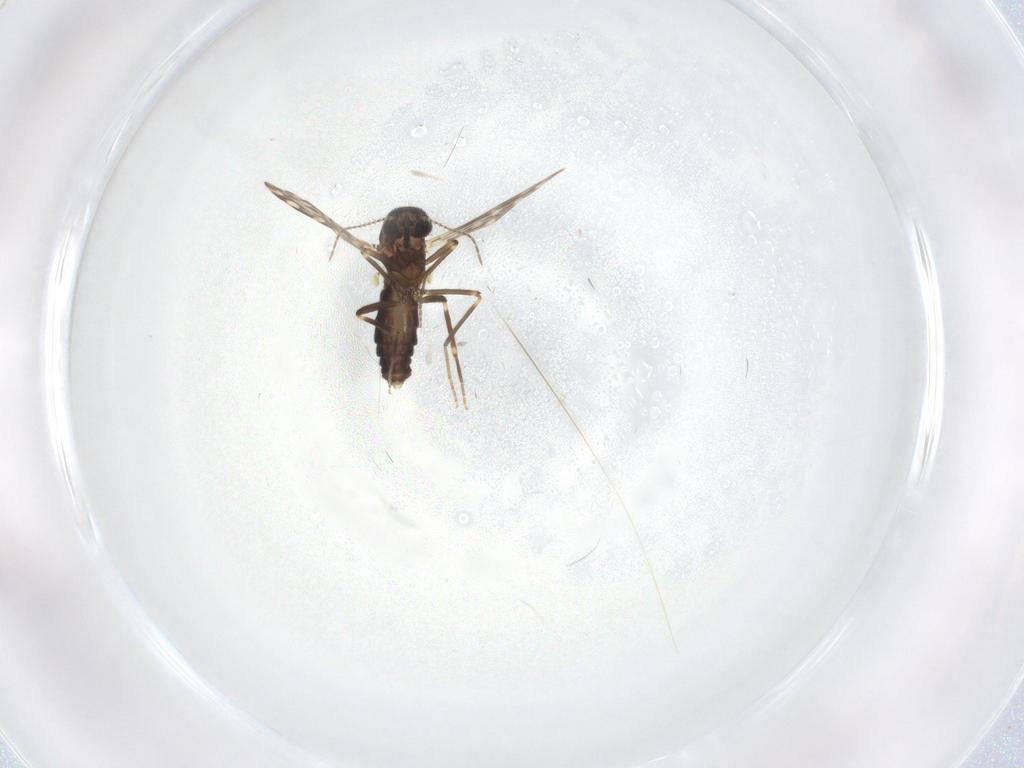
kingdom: Animalia
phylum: Arthropoda
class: Insecta
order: Diptera
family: Ceratopogonidae
